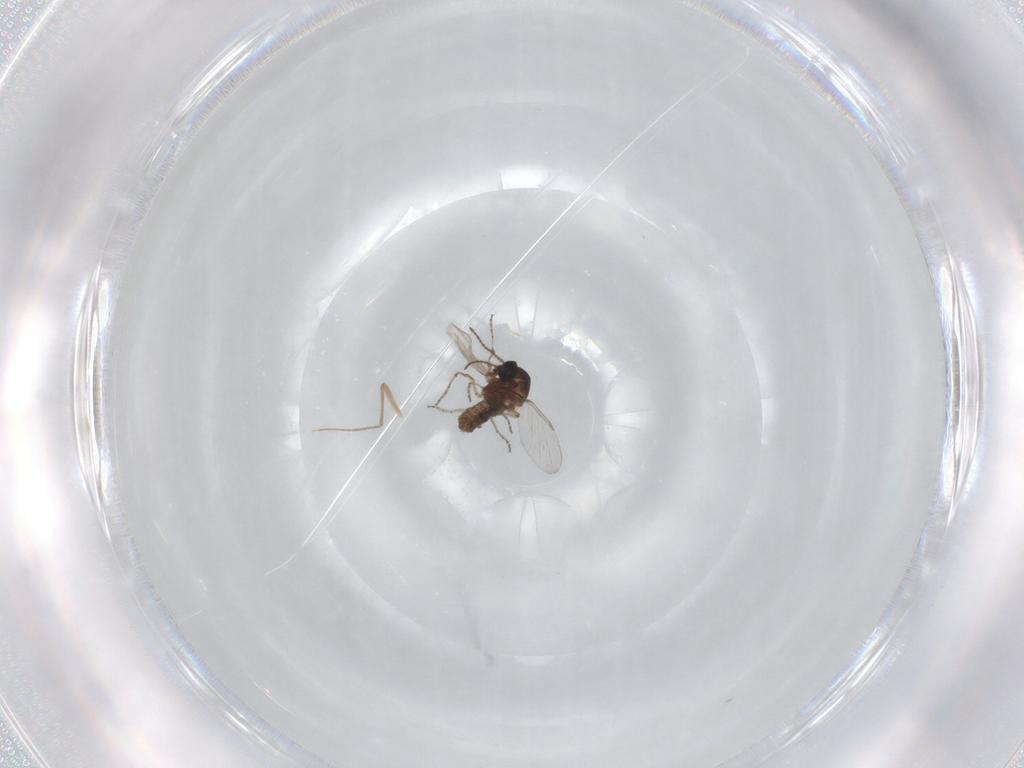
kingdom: Animalia
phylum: Arthropoda
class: Insecta
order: Diptera
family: Ceratopogonidae
